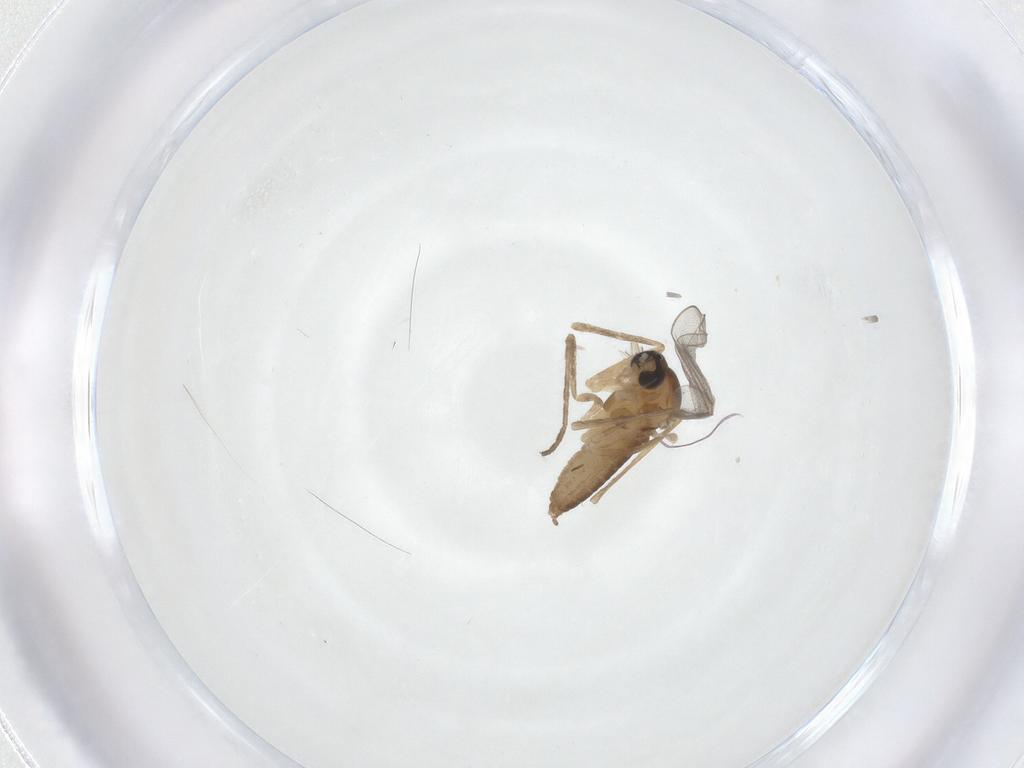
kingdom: Animalia
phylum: Arthropoda
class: Insecta
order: Diptera
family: Cecidomyiidae
